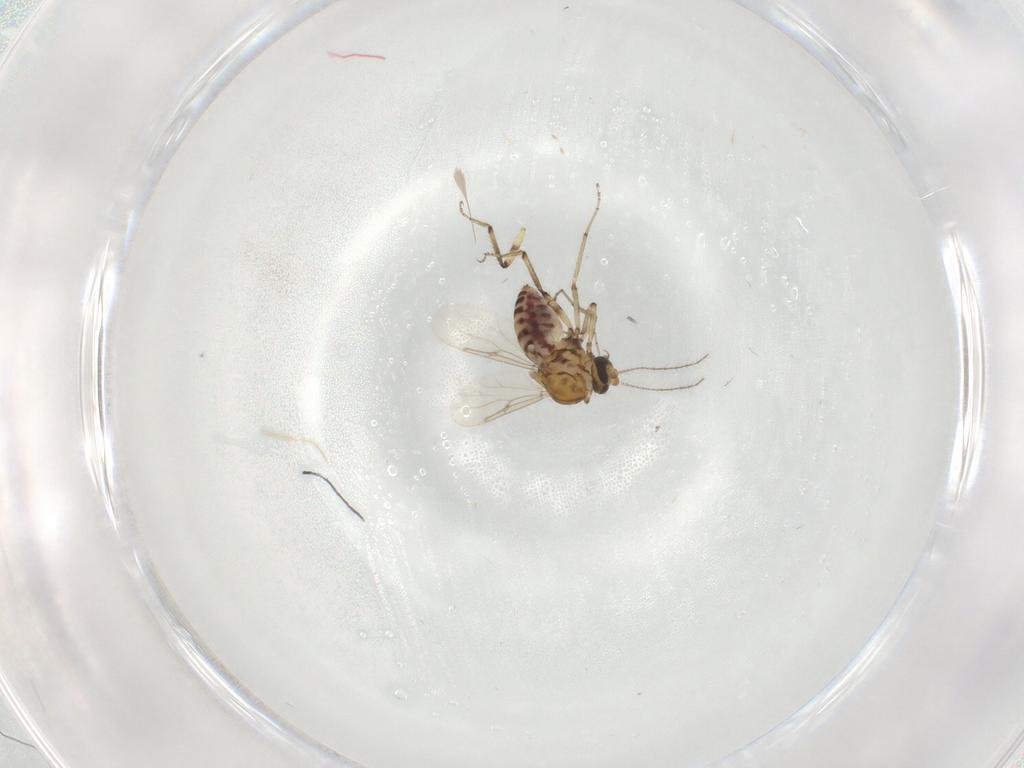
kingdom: Animalia
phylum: Arthropoda
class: Insecta
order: Diptera
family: Ceratopogonidae
